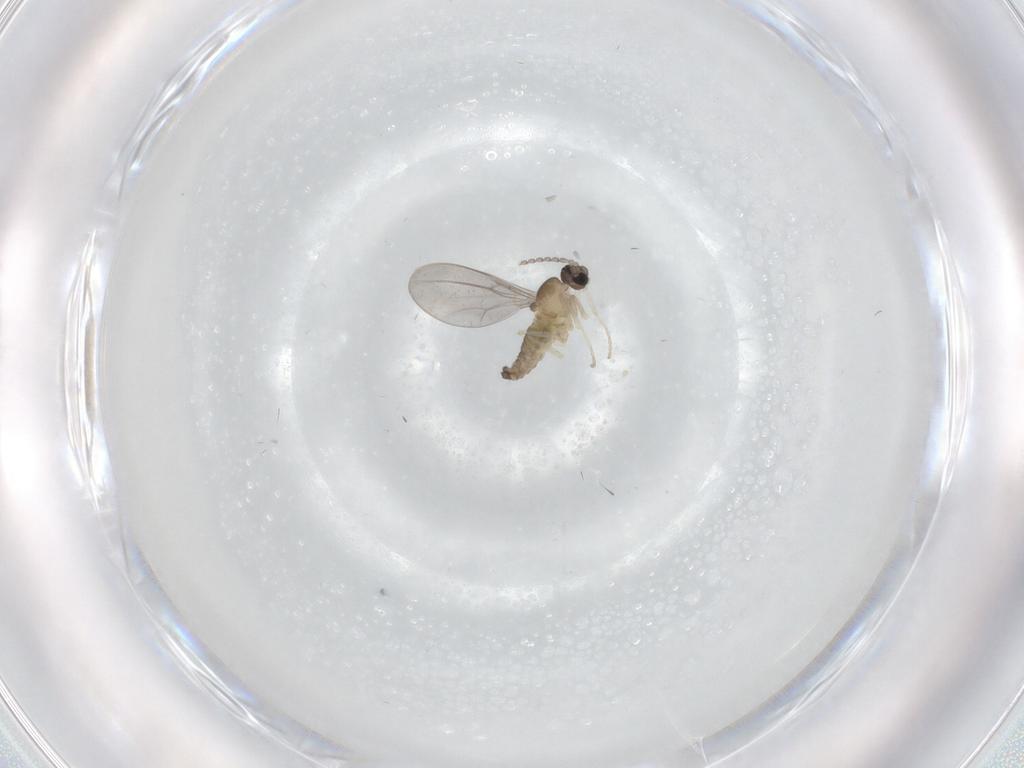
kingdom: Animalia
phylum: Arthropoda
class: Insecta
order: Diptera
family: Cecidomyiidae
